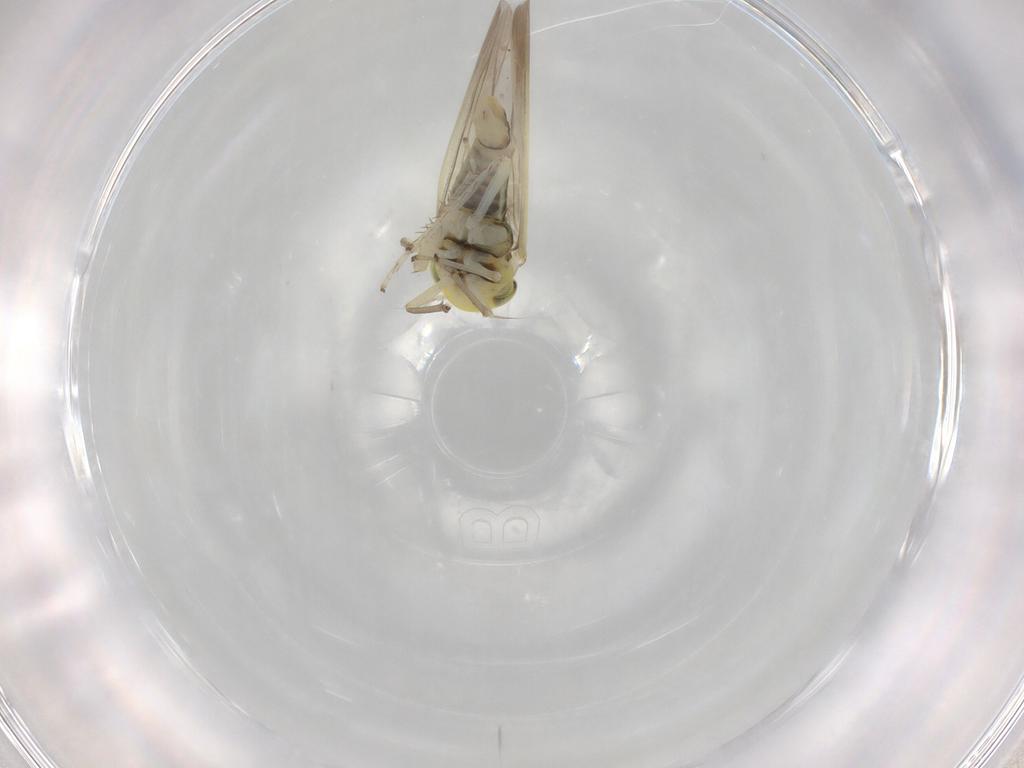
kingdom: Animalia
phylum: Arthropoda
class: Insecta
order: Hemiptera
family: Cicadellidae
